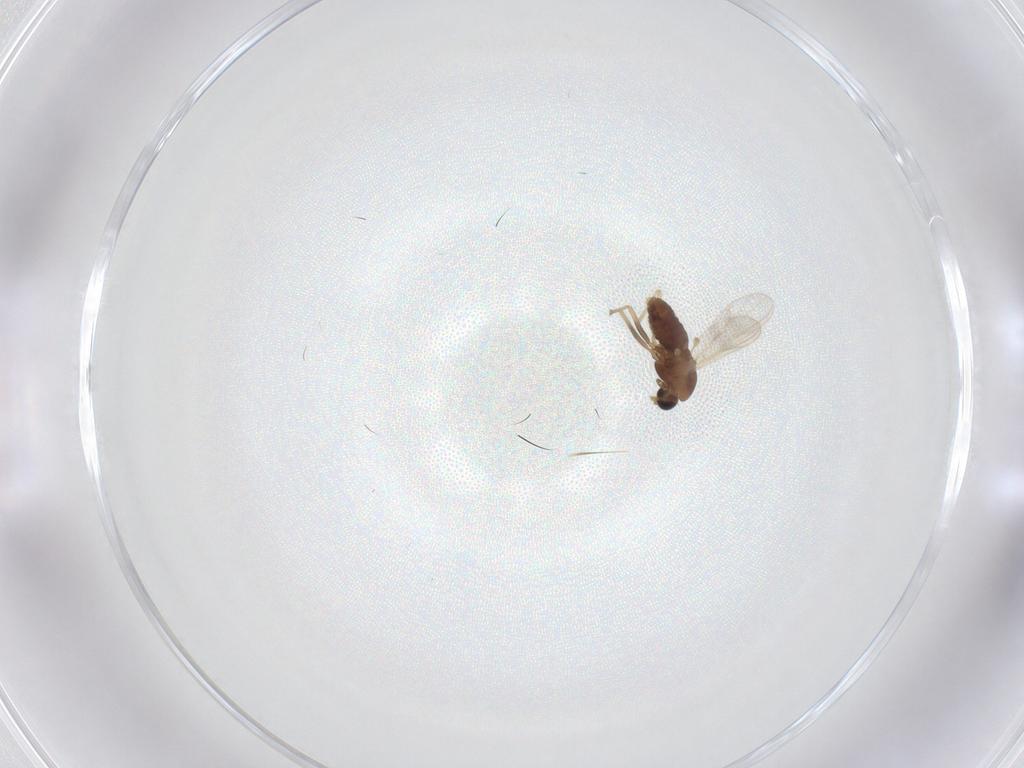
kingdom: Animalia
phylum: Arthropoda
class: Insecta
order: Diptera
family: Chironomidae
